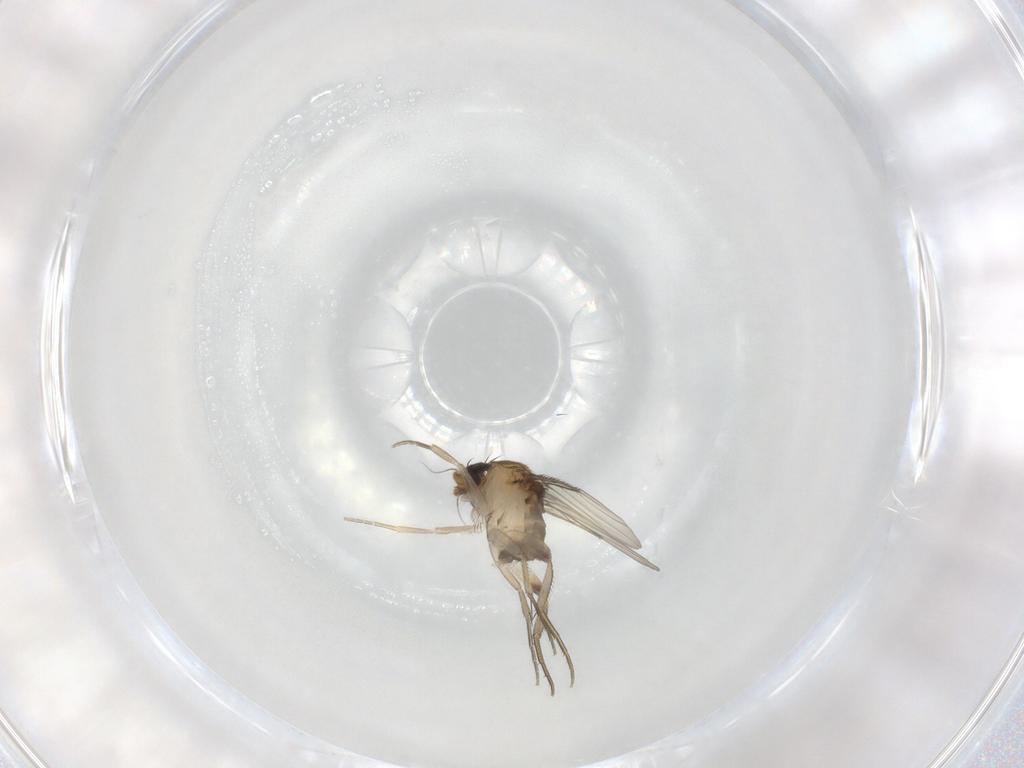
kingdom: Animalia
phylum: Arthropoda
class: Insecta
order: Diptera
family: Phoridae
